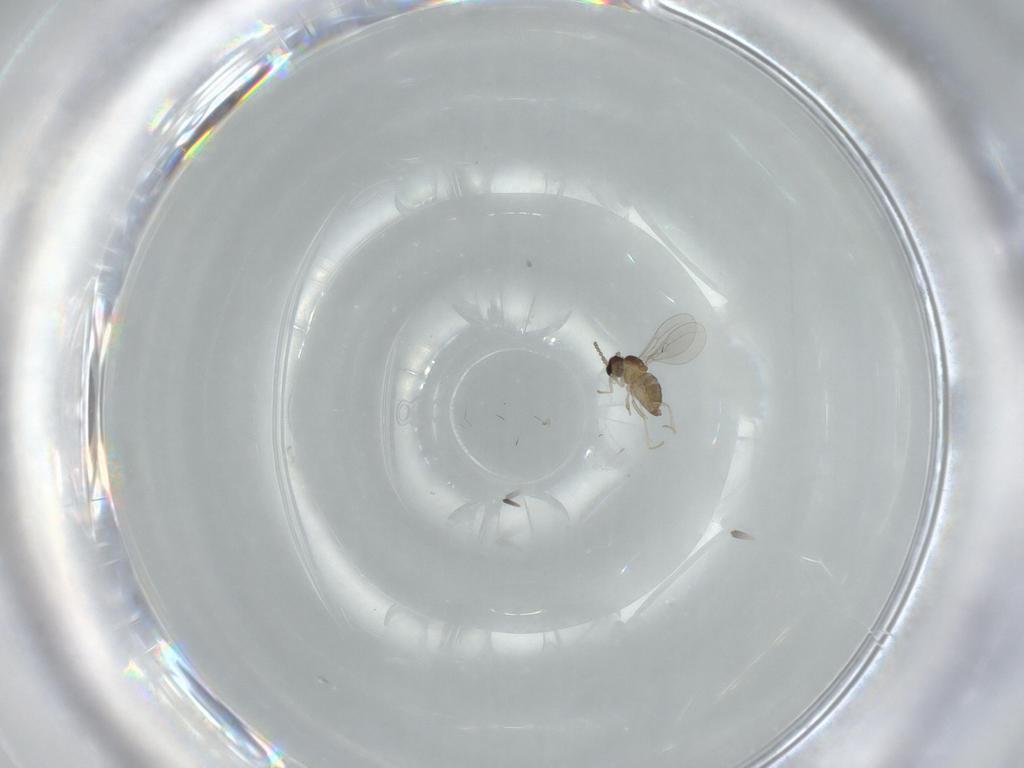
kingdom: Animalia
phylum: Arthropoda
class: Insecta
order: Diptera
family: Cecidomyiidae
